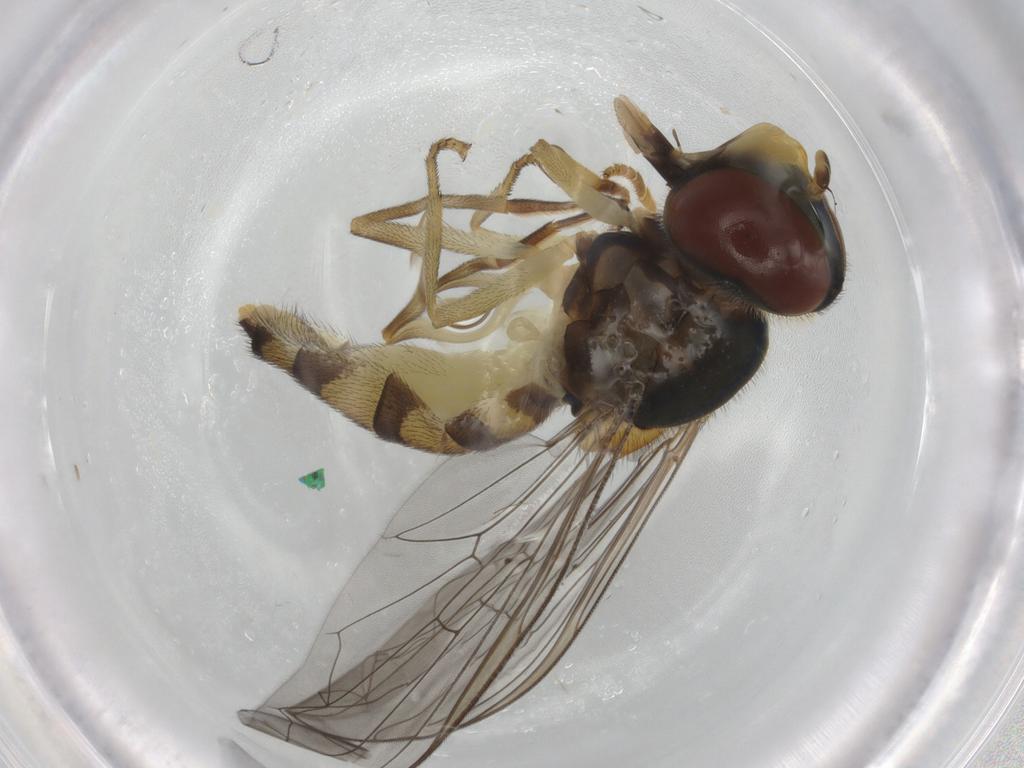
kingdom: Animalia
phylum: Arthropoda
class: Insecta
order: Diptera
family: Syrphidae
